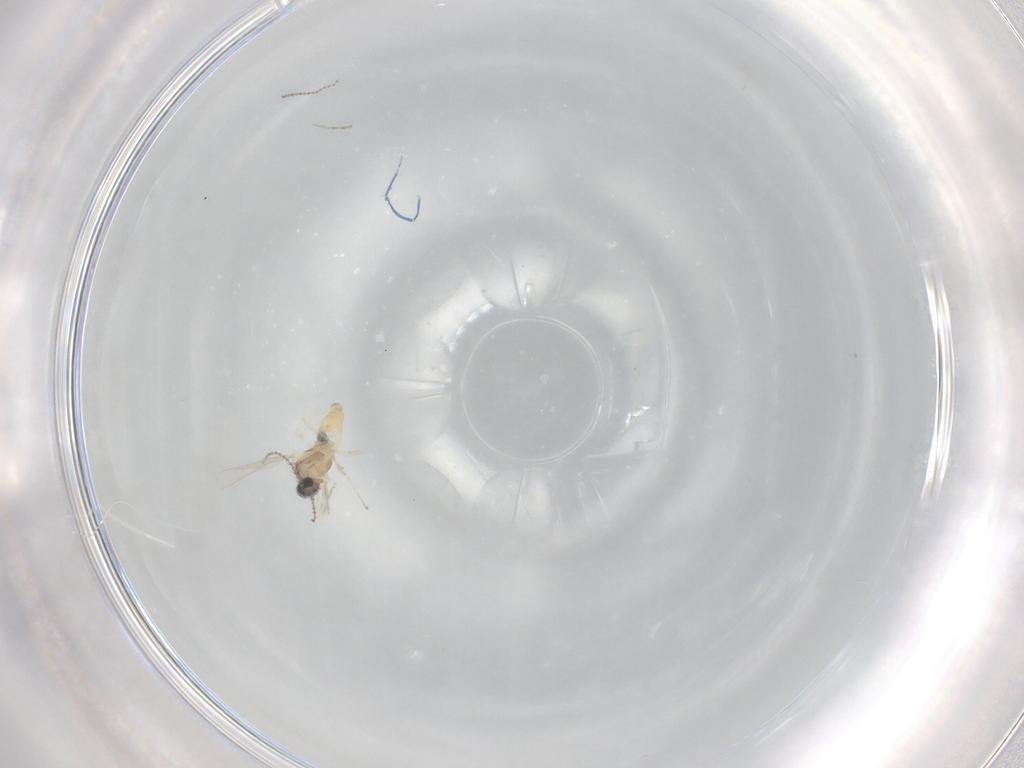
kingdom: Animalia
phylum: Arthropoda
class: Insecta
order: Diptera
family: Cecidomyiidae
